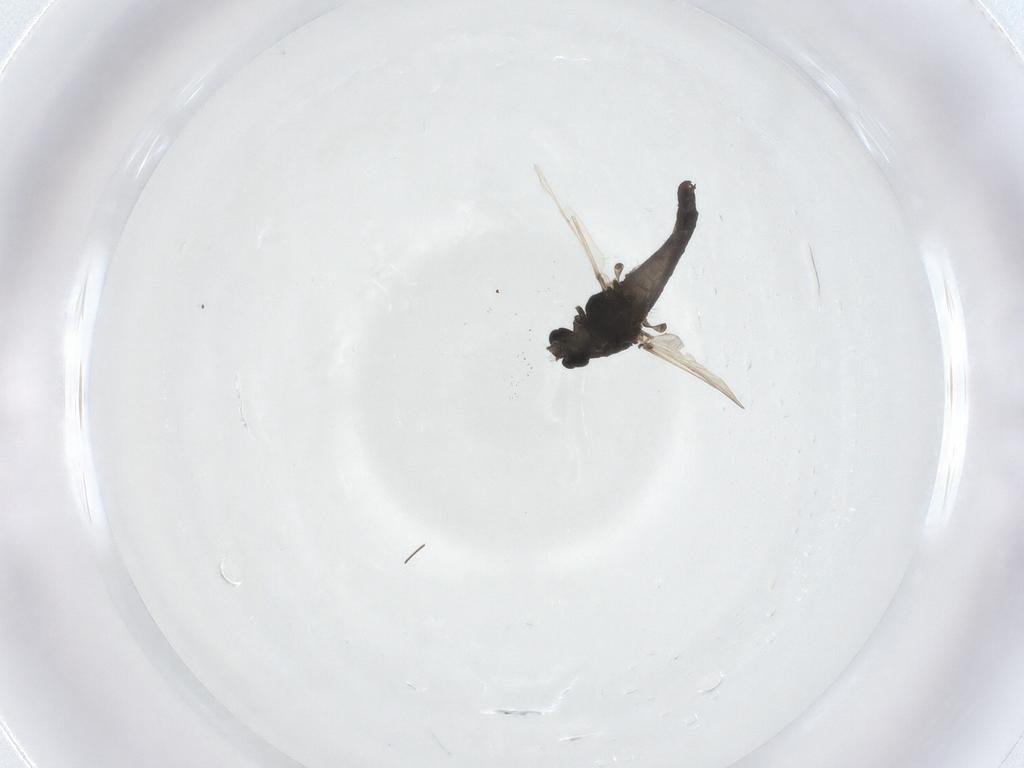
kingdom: Animalia
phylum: Arthropoda
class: Insecta
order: Diptera
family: Chironomidae
